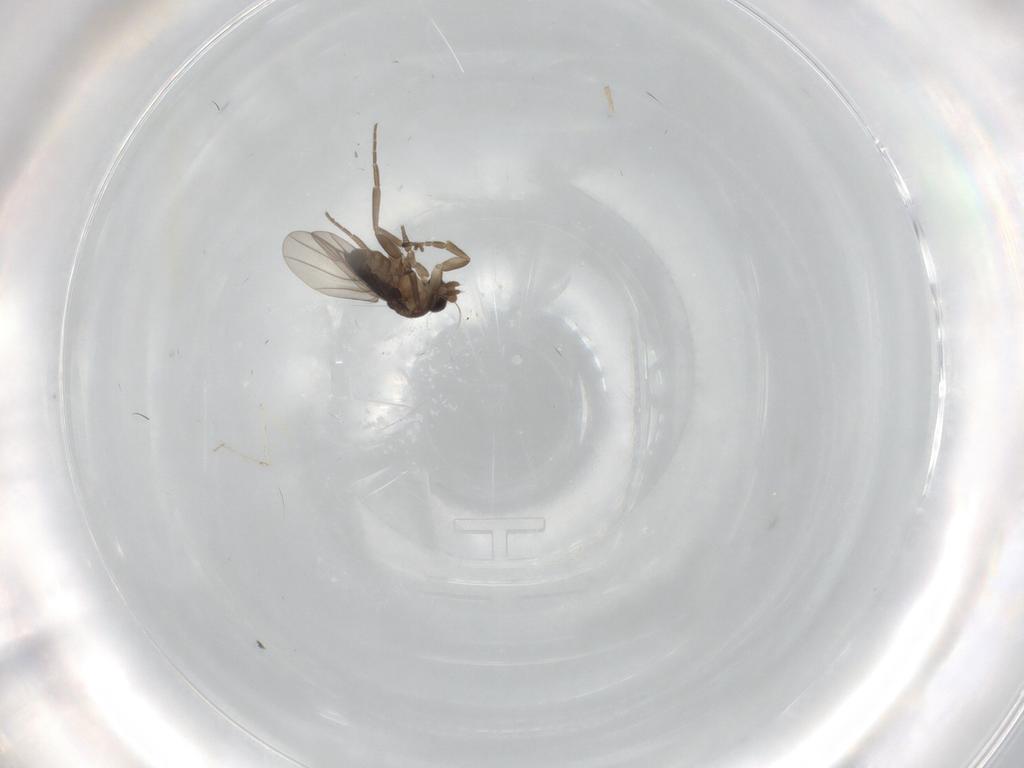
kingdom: Animalia
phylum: Arthropoda
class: Insecta
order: Diptera
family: Phoridae
